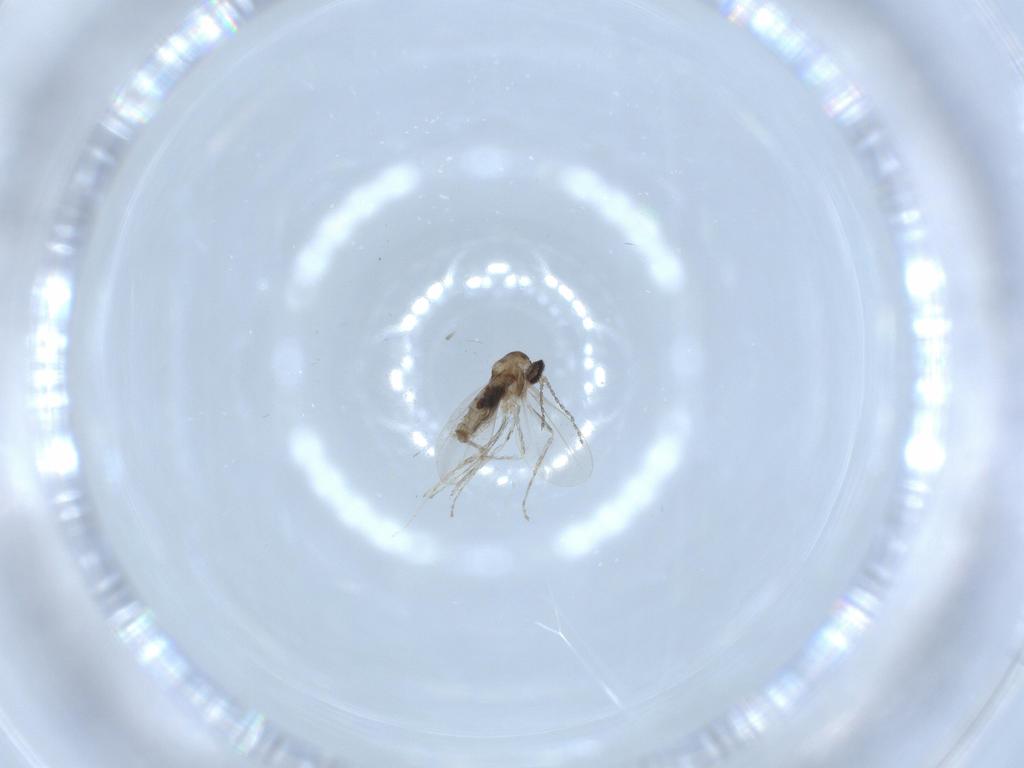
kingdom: Animalia
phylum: Arthropoda
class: Insecta
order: Diptera
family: Cecidomyiidae
